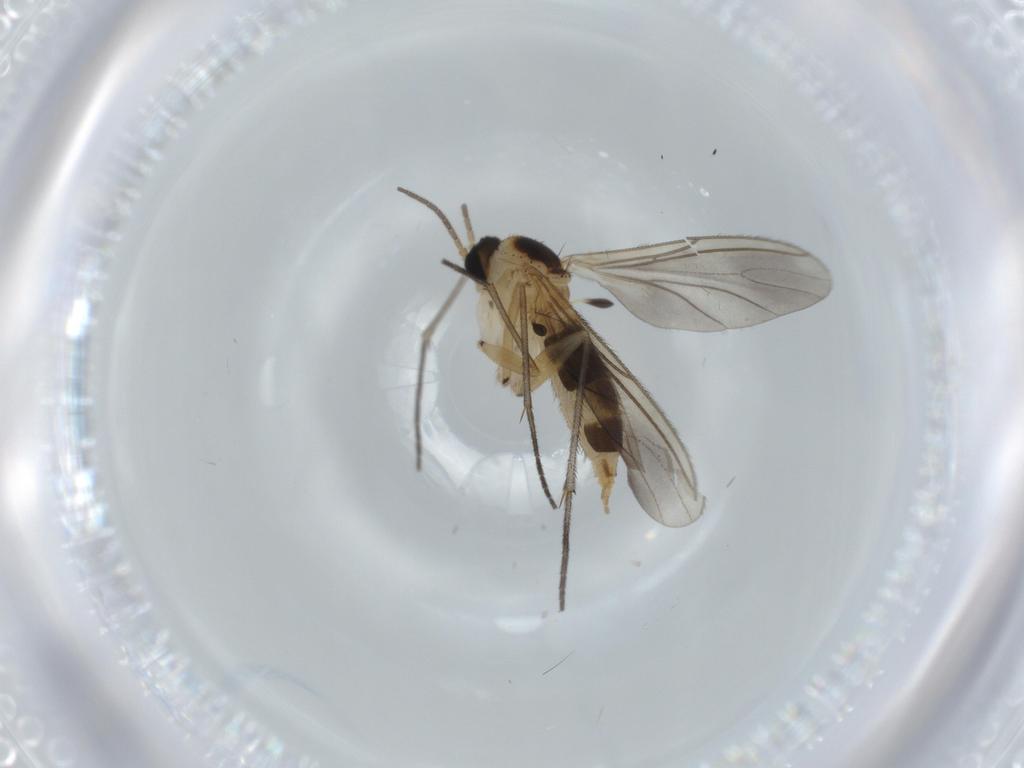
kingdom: Animalia
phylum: Arthropoda
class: Insecta
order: Diptera
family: Sciaridae
